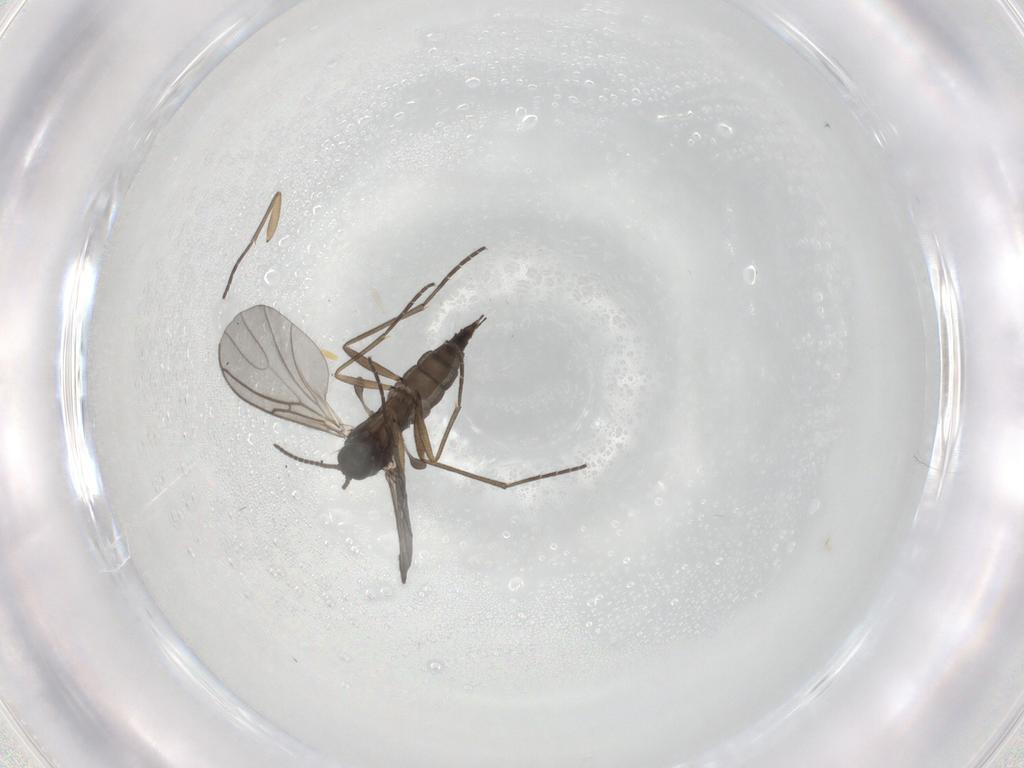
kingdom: Animalia
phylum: Arthropoda
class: Insecta
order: Diptera
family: Sciaridae
